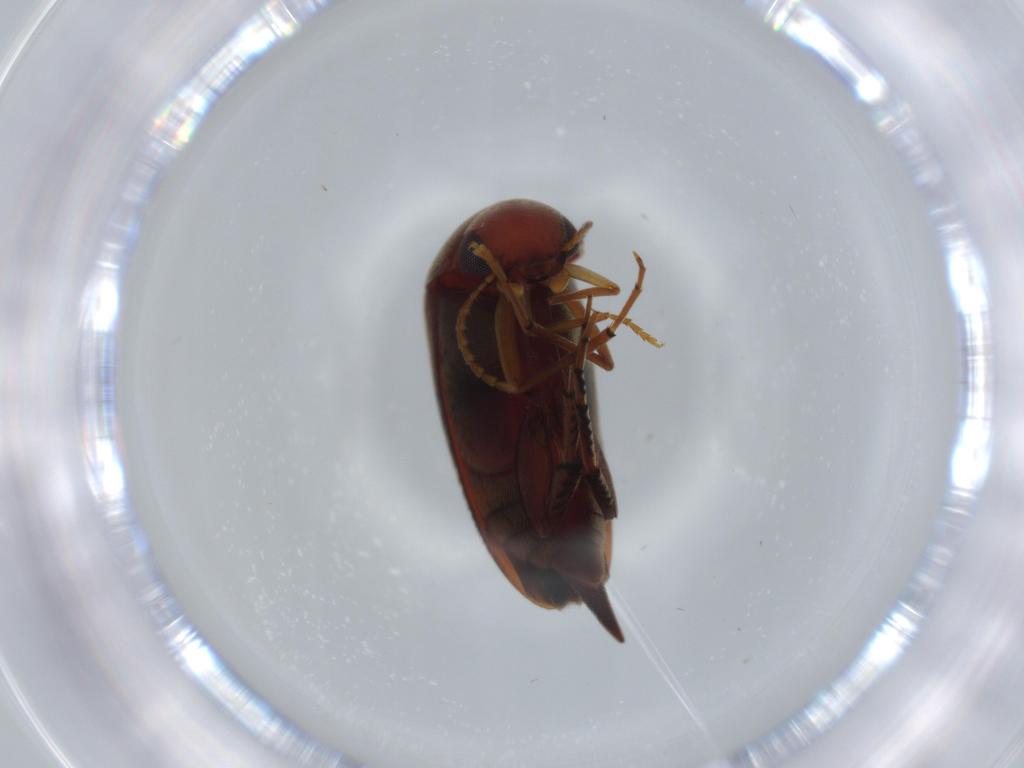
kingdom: Animalia
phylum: Arthropoda
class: Insecta
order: Coleoptera
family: Mordellidae
